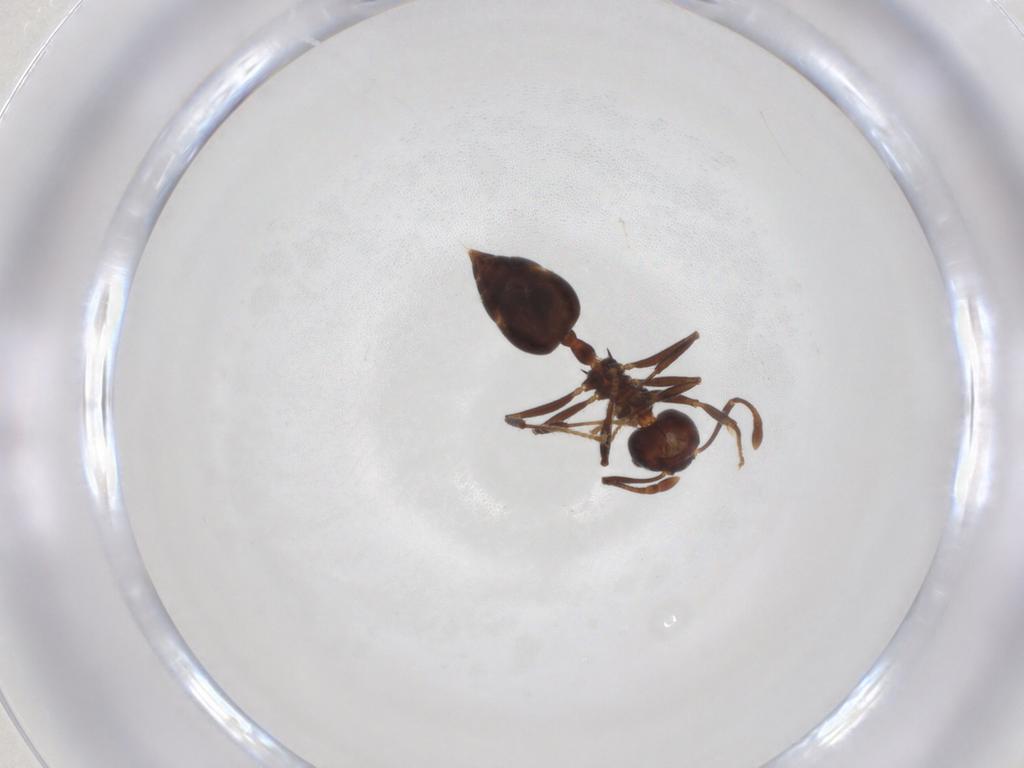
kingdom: Animalia
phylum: Arthropoda
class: Insecta
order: Hymenoptera
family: Formicidae
